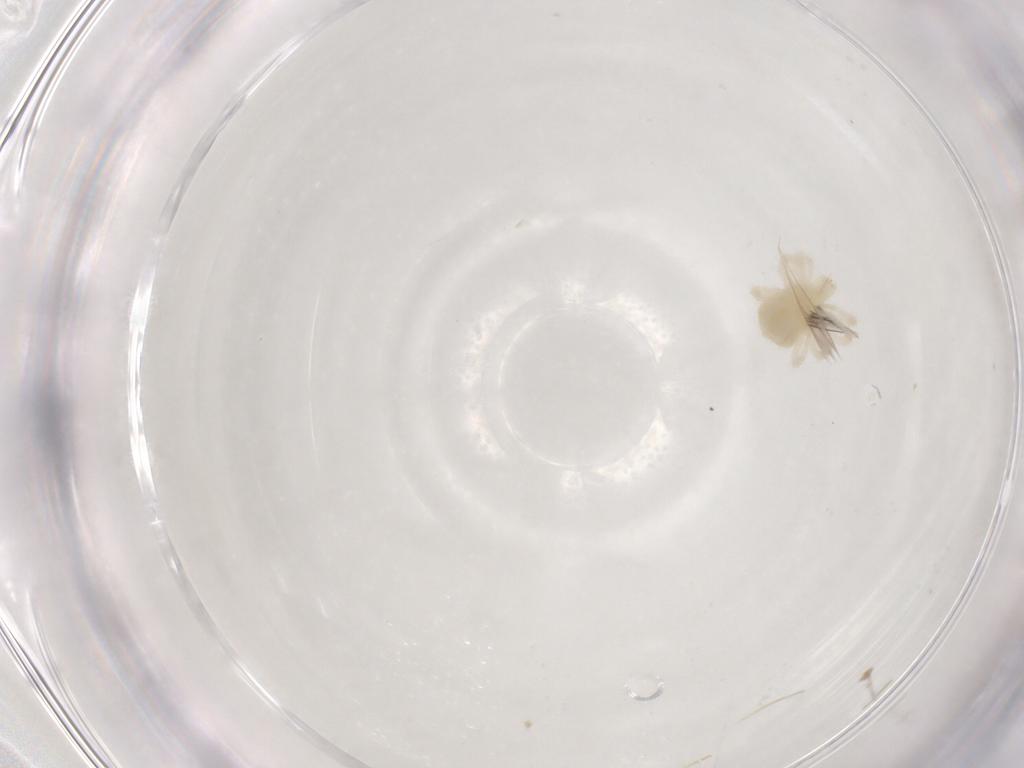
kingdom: Animalia
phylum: Arthropoda
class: Arachnida
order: Trombidiformes
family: Anystidae
